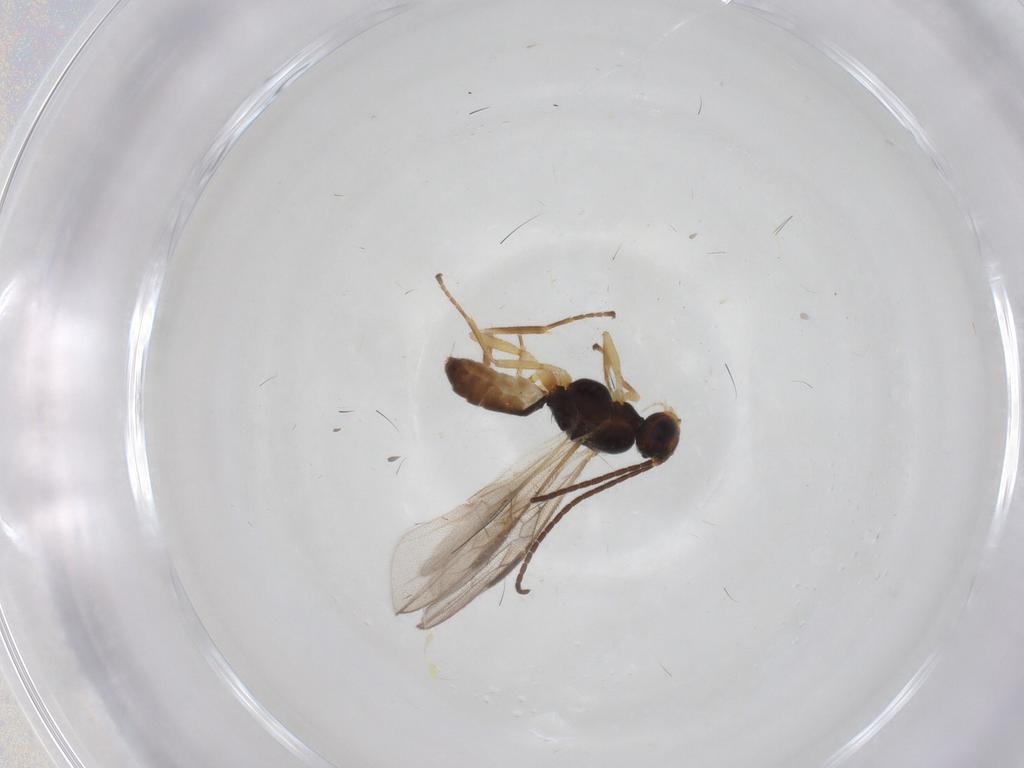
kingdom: Animalia
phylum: Arthropoda
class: Insecta
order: Hymenoptera
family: Braconidae
